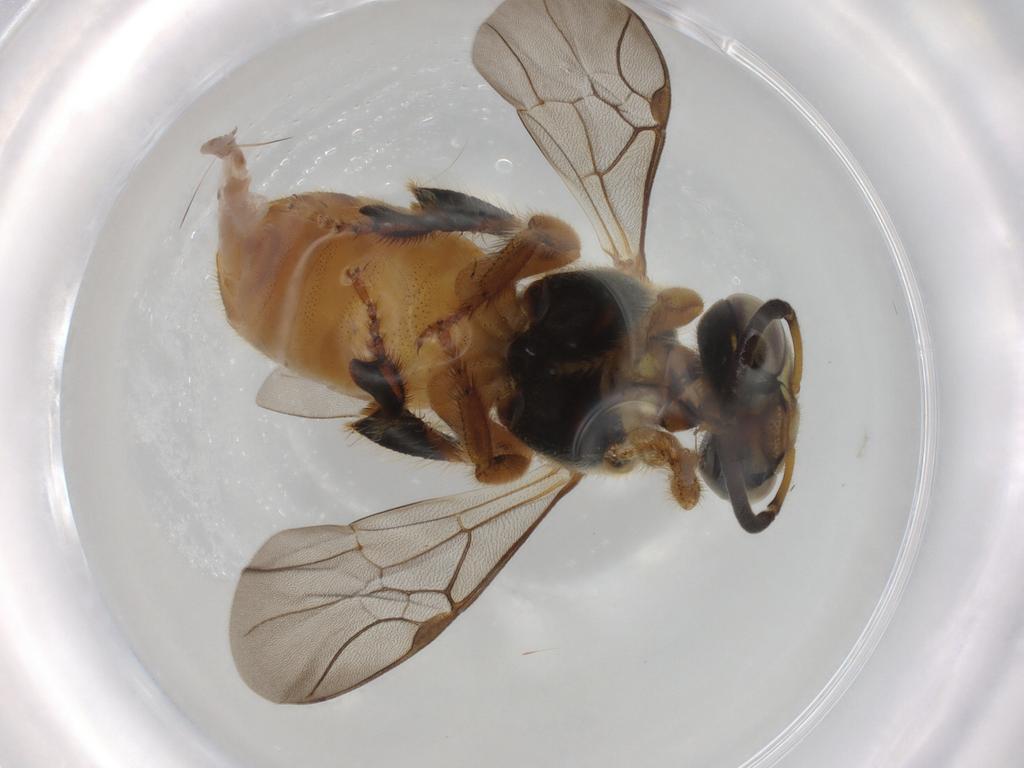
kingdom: Animalia
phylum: Arthropoda
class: Insecta
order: Hymenoptera
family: Apidae
